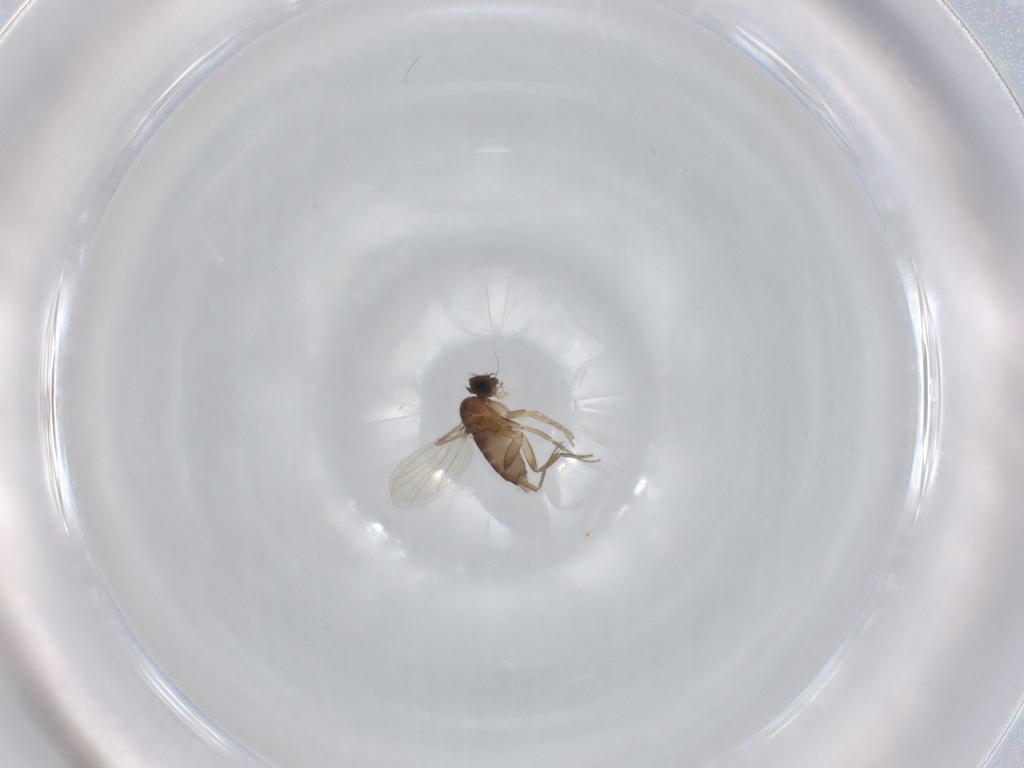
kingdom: Animalia
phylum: Arthropoda
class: Insecta
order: Diptera
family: Phoridae
